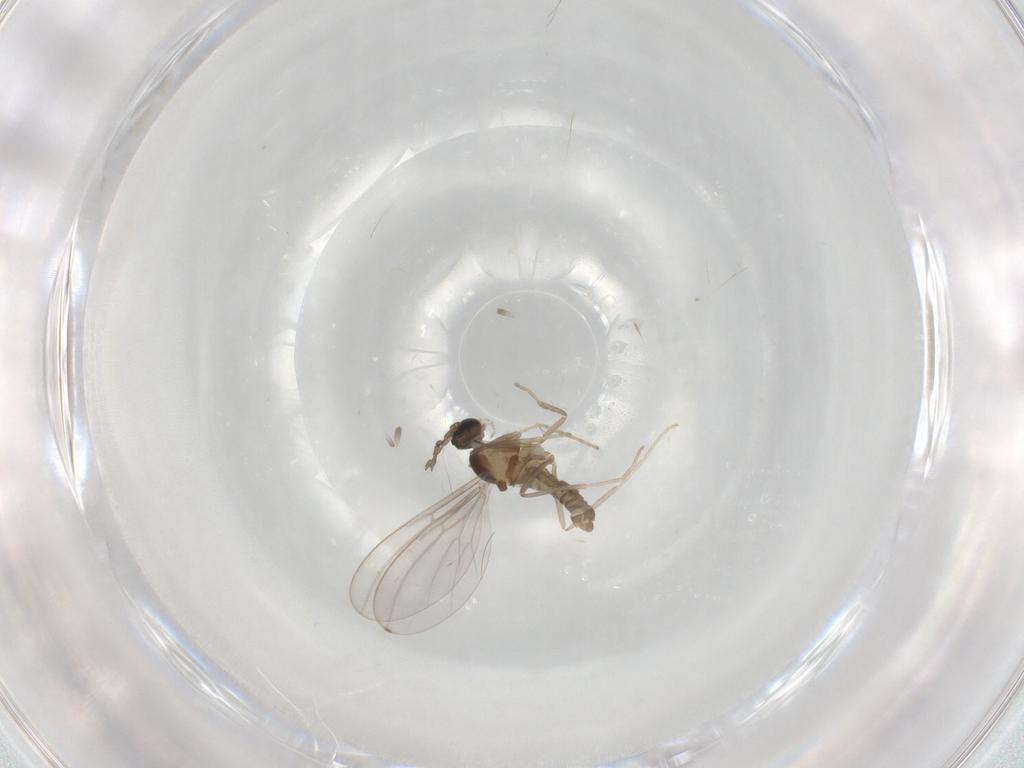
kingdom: Animalia
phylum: Arthropoda
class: Insecta
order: Diptera
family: Cecidomyiidae
